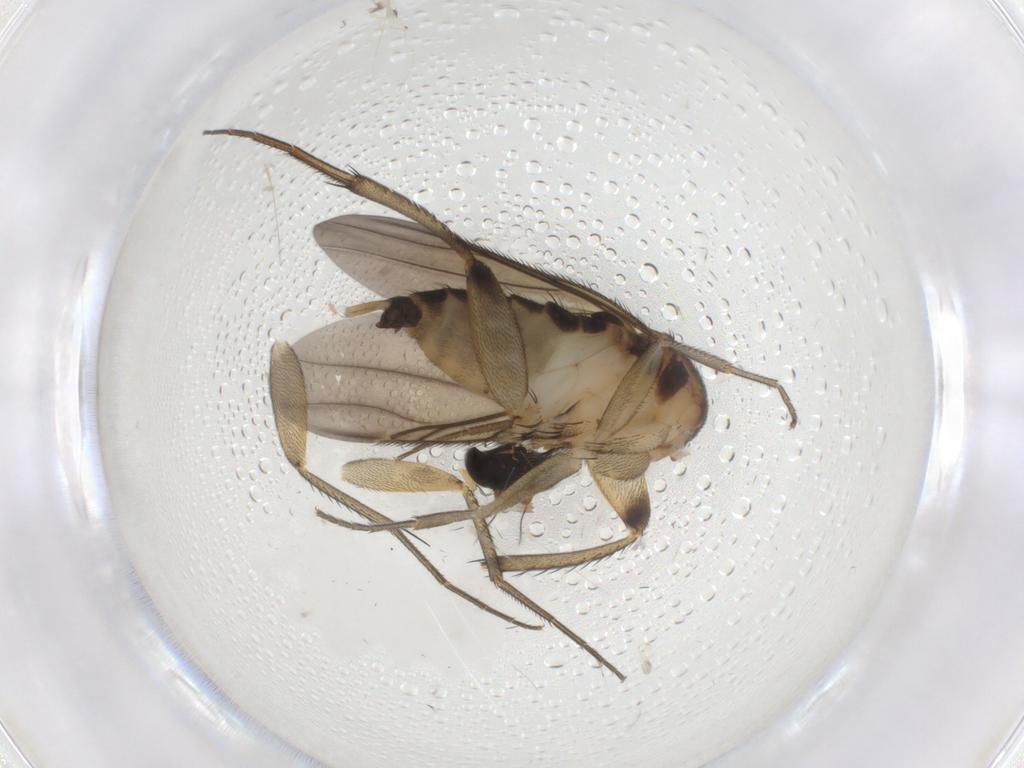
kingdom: Animalia
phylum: Arthropoda
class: Insecta
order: Diptera
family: Phoridae
